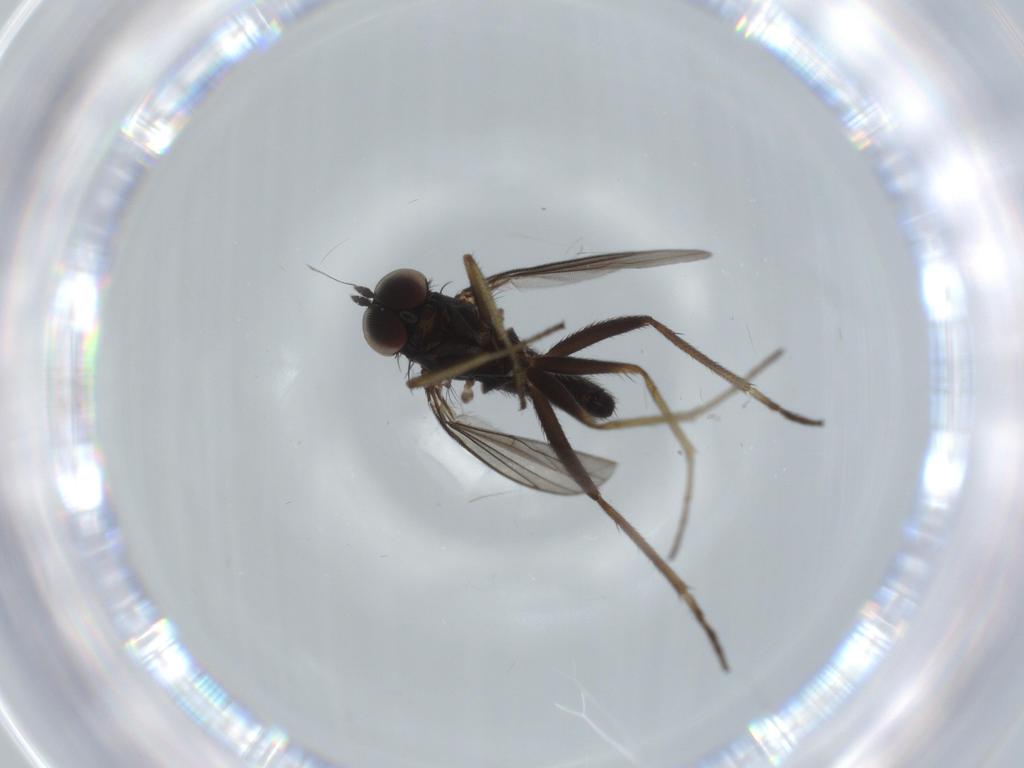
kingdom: Animalia
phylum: Arthropoda
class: Insecta
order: Diptera
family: Dolichopodidae
